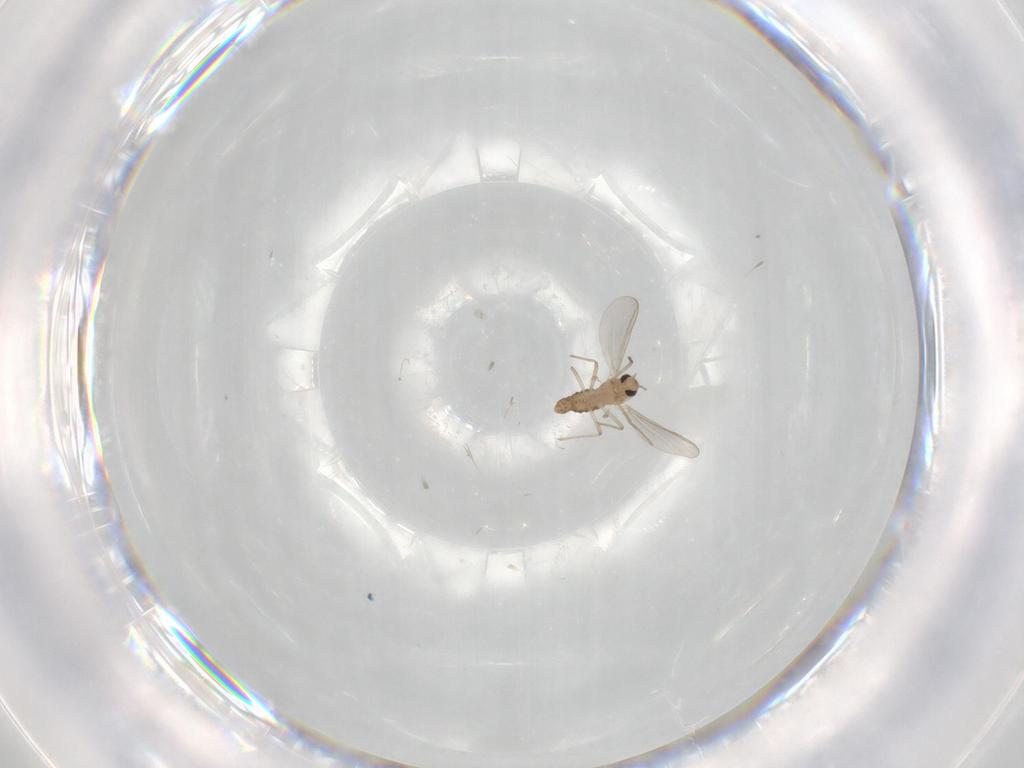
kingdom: Animalia
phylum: Arthropoda
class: Insecta
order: Diptera
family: Chironomidae
